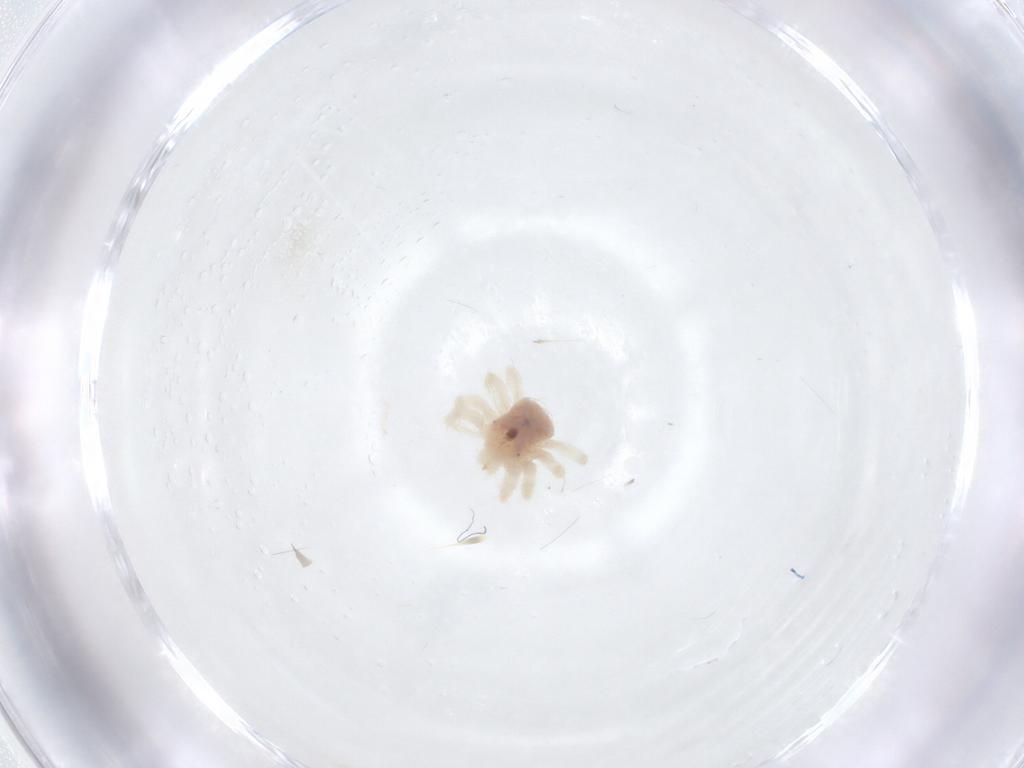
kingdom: Animalia
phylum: Arthropoda
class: Arachnida
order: Trombidiformes
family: Anystidae
